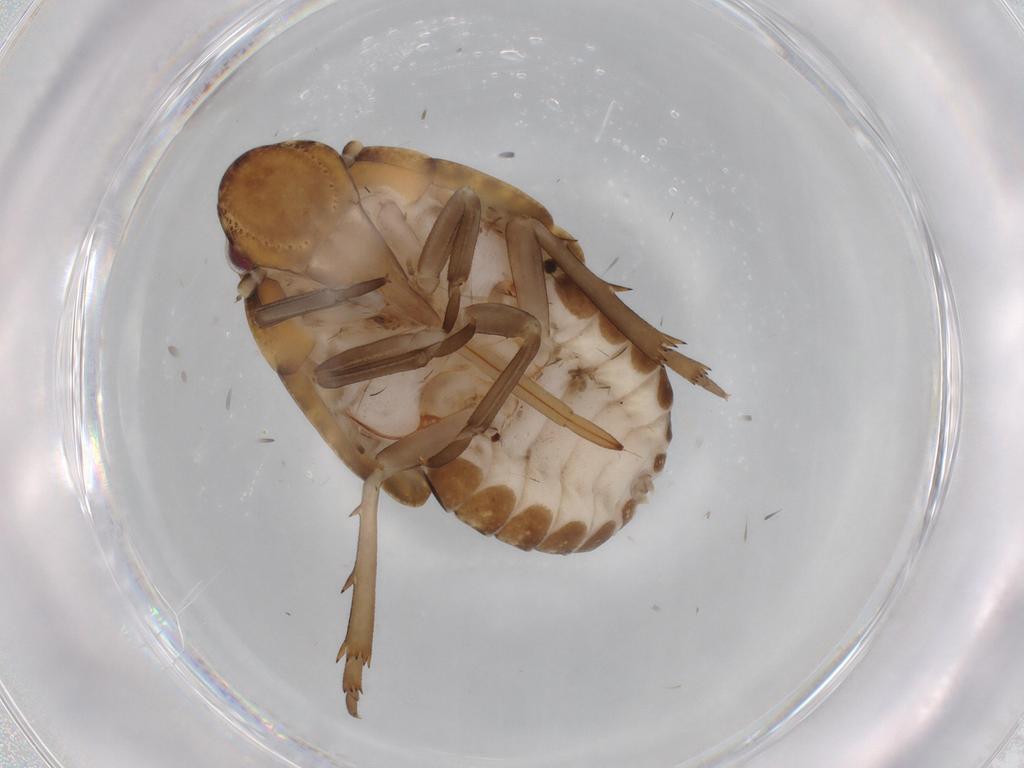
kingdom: Animalia
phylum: Arthropoda
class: Insecta
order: Hemiptera
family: Flatidae
